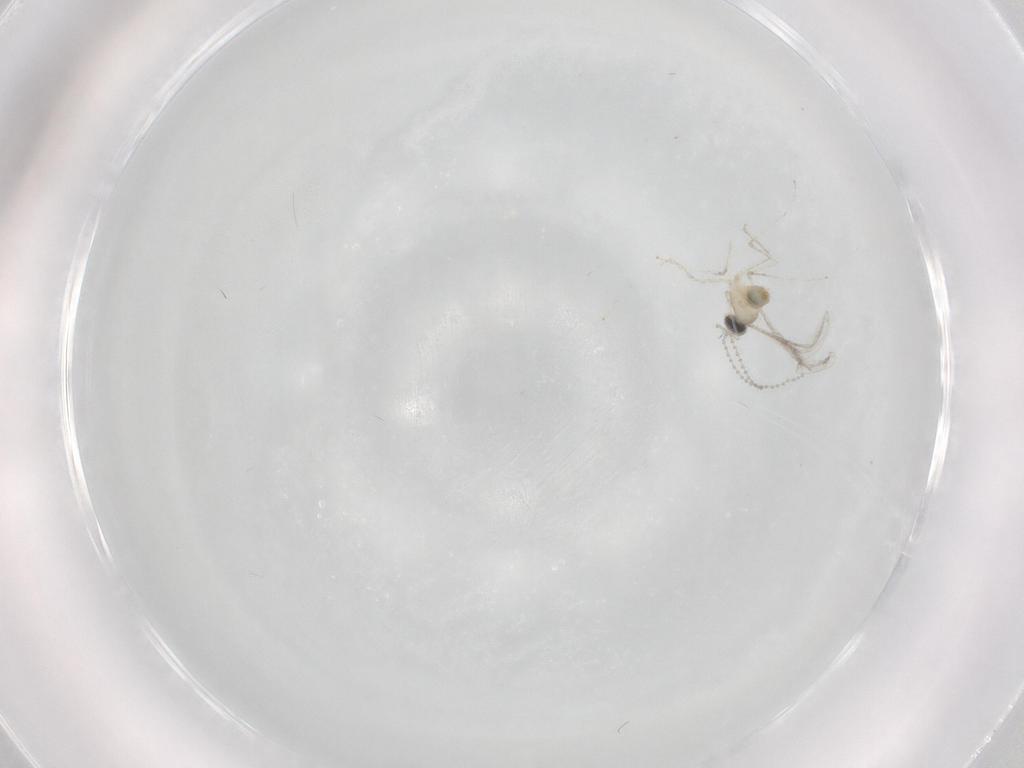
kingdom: Animalia
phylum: Arthropoda
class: Insecta
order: Diptera
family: Cecidomyiidae
